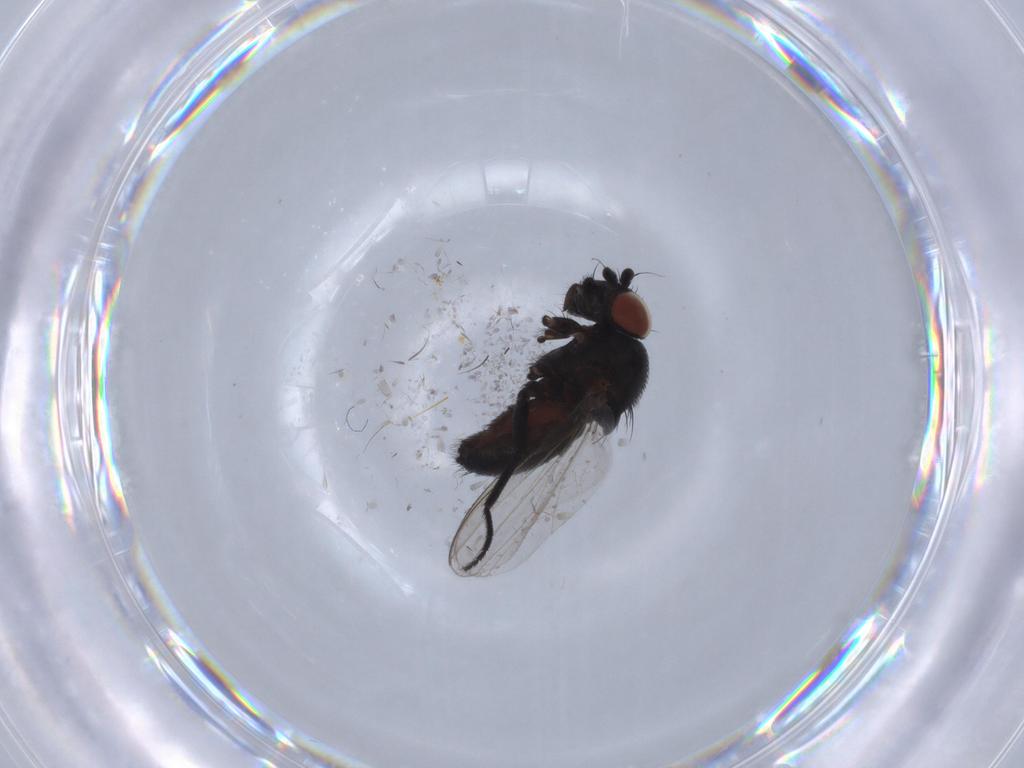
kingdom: Animalia
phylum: Arthropoda
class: Insecta
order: Diptera
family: Milichiidae
